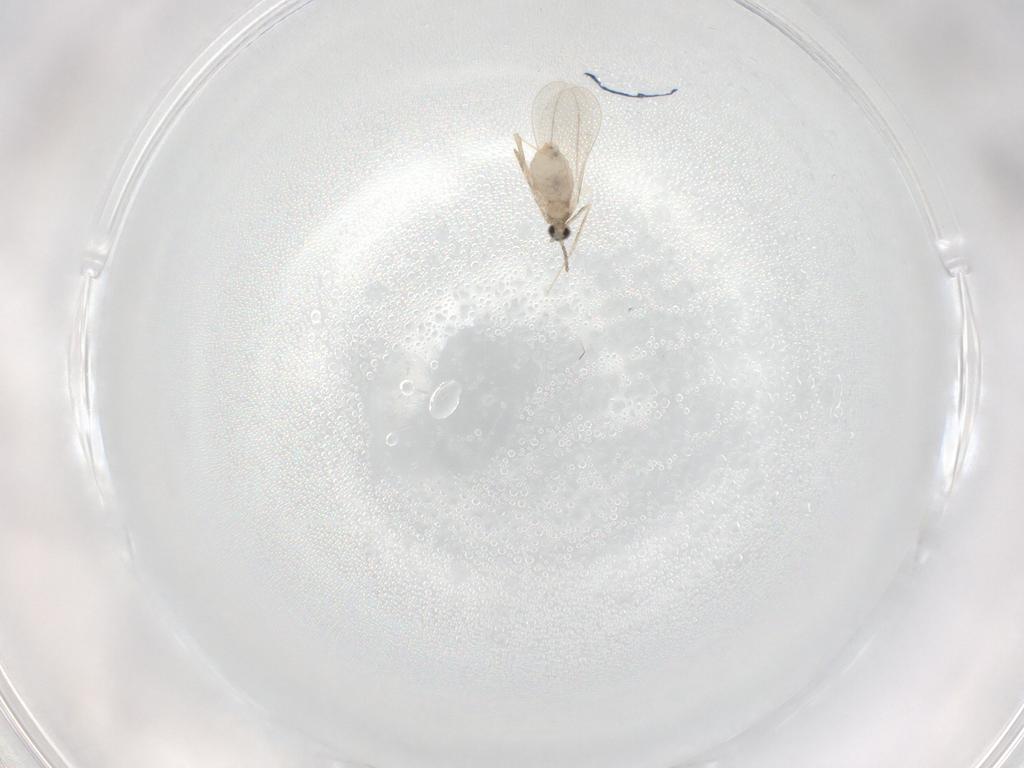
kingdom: Animalia
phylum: Arthropoda
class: Insecta
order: Diptera
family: Cecidomyiidae
